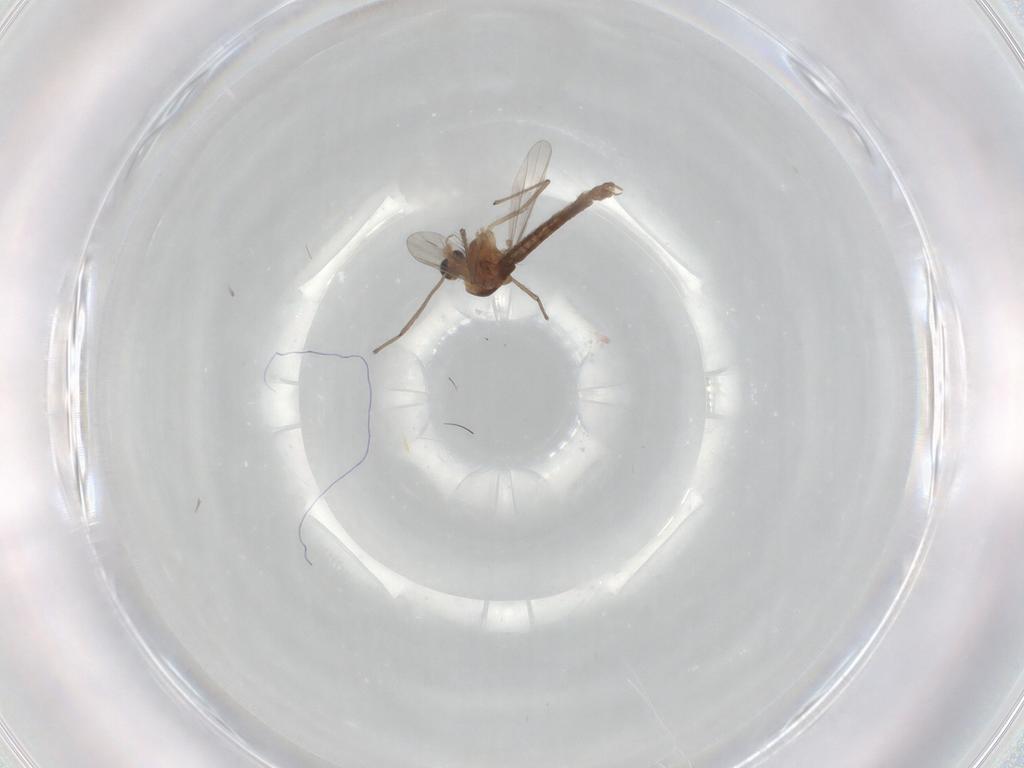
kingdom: Animalia
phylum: Arthropoda
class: Insecta
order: Diptera
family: Chironomidae
